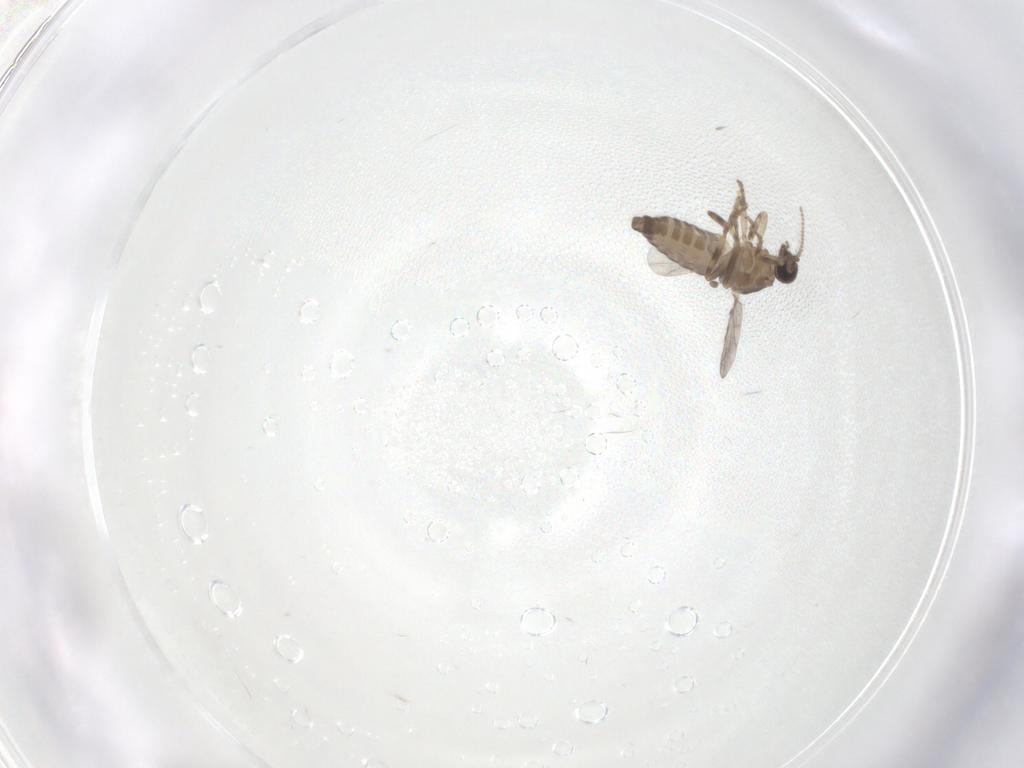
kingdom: Animalia
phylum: Arthropoda
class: Insecta
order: Diptera
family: Ceratopogonidae
